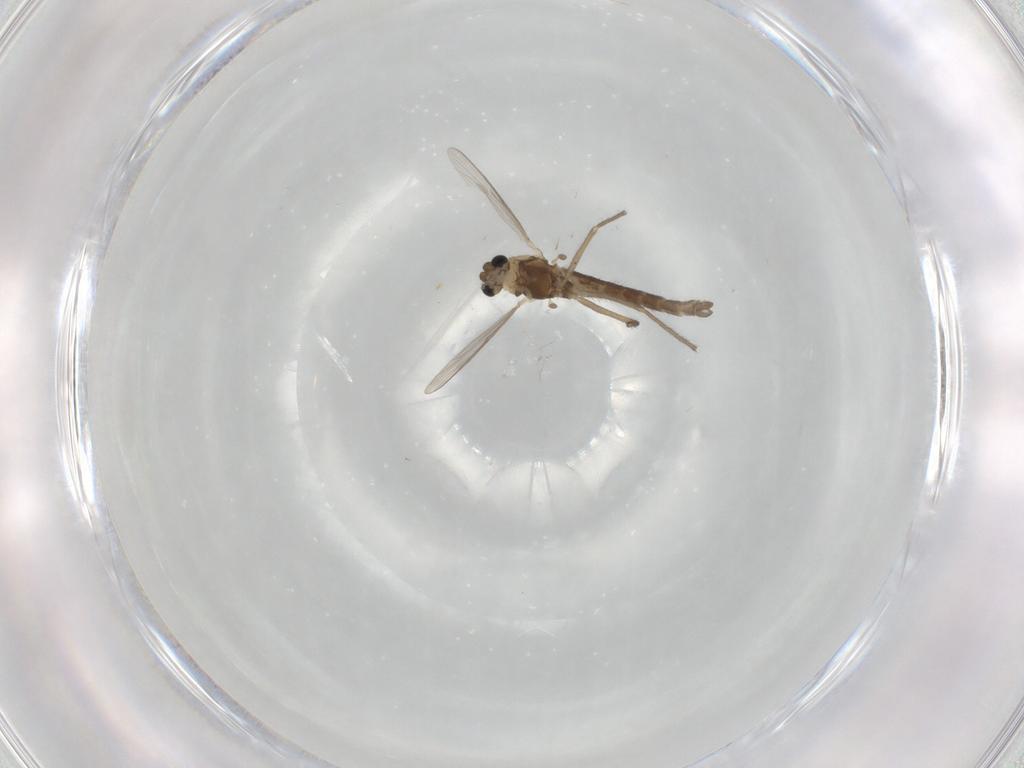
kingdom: Animalia
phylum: Arthropoda
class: Insecta
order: Diptera
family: Chironomidae
